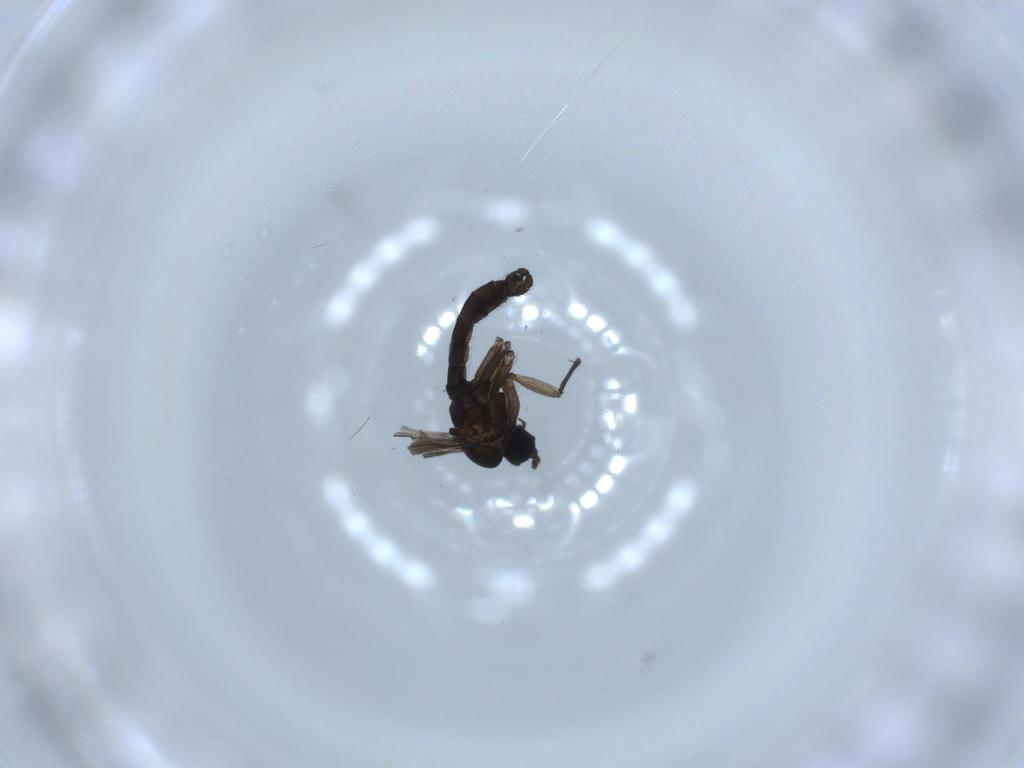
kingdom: Animalia
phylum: Arthropoda
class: Insecta
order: Diptera
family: Sciaridae
